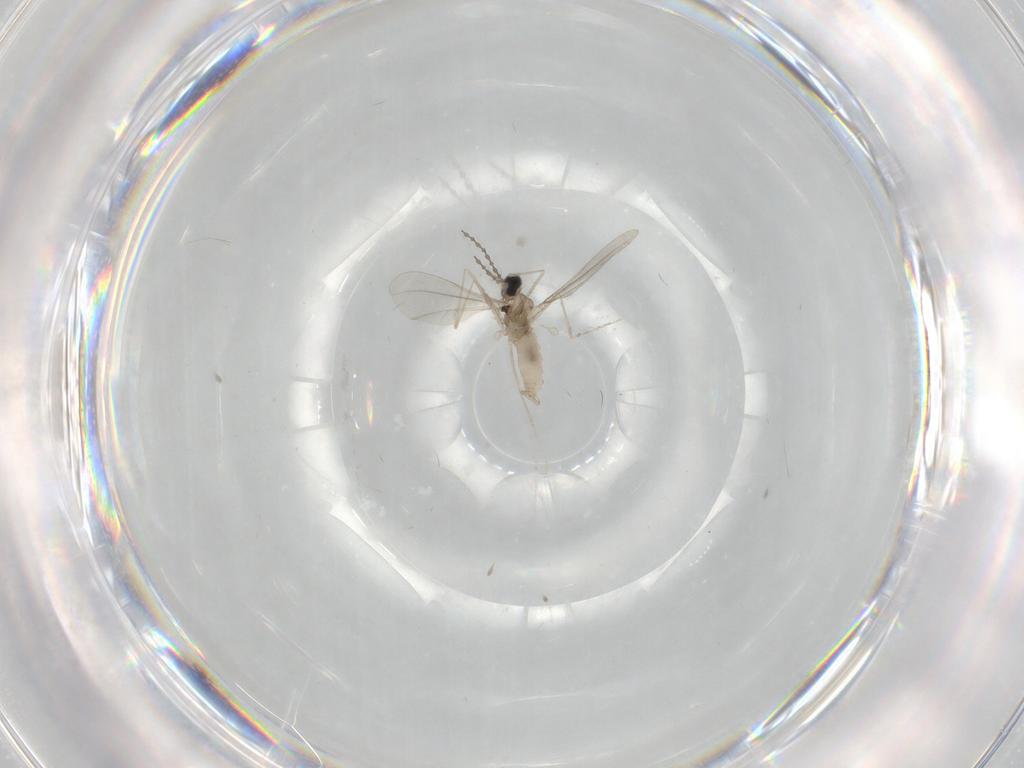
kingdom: Animalia
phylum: Arthropoda
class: Insecta
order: Diptera
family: Cecidomyiidae
